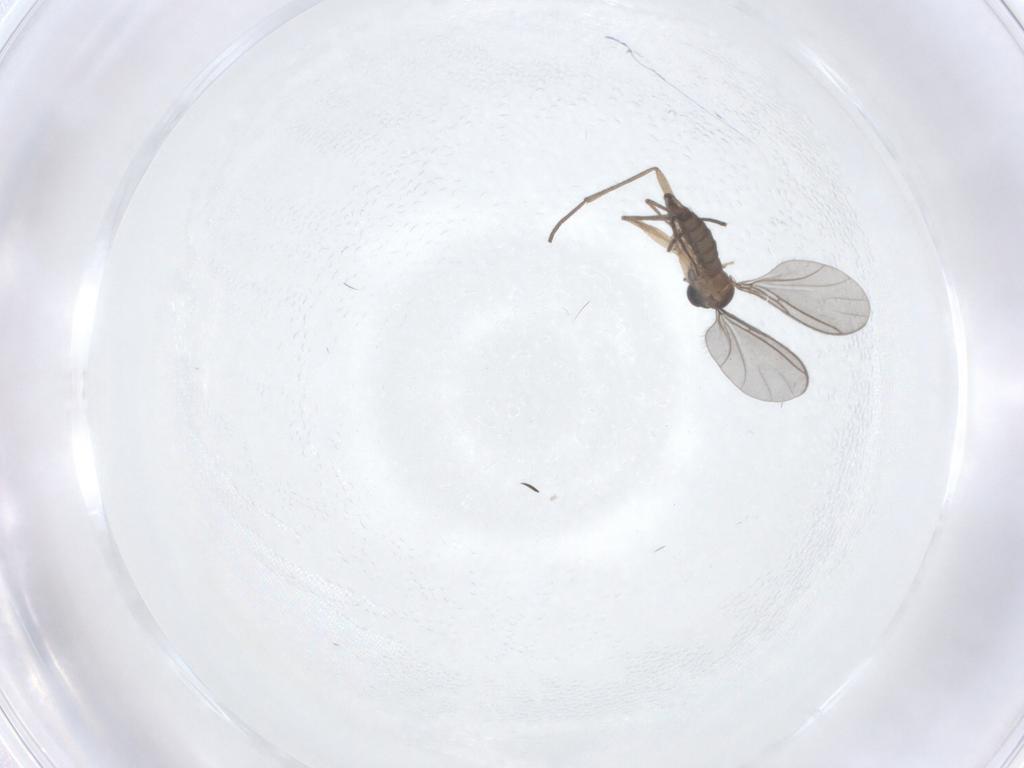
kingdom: Animalia
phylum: Arthropoda
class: Insecta
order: Diptera
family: Sciaridae
